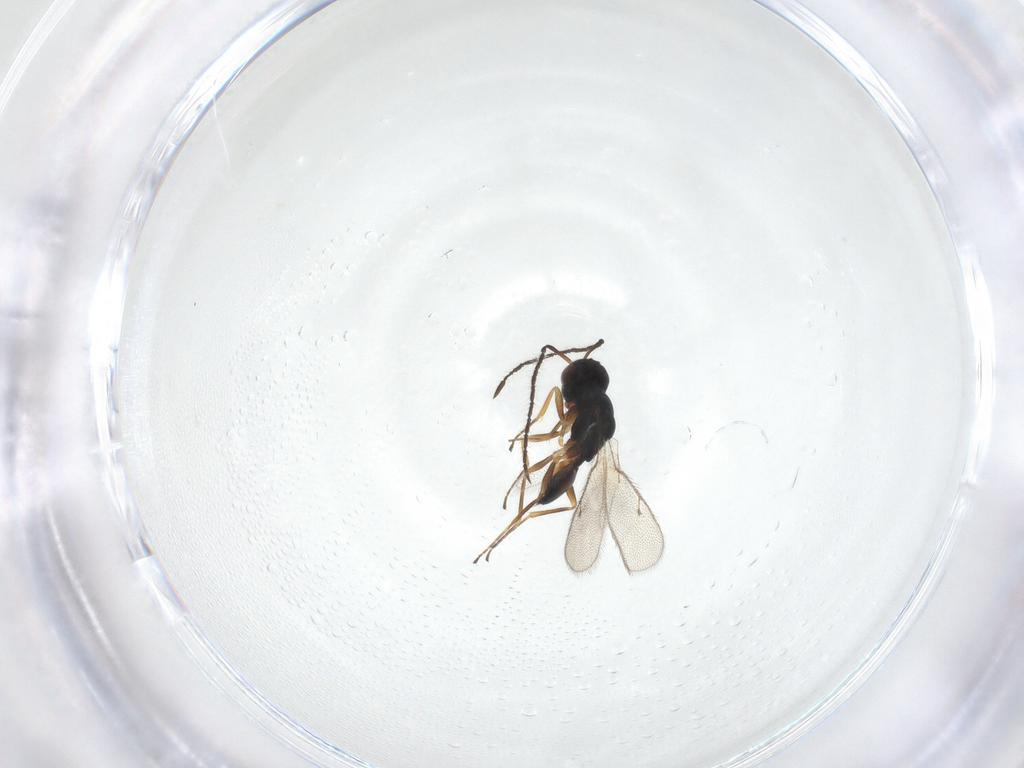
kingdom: Animalia
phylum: Arthropoda
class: Insecta
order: Hymenoptera
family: Pteromalidae
